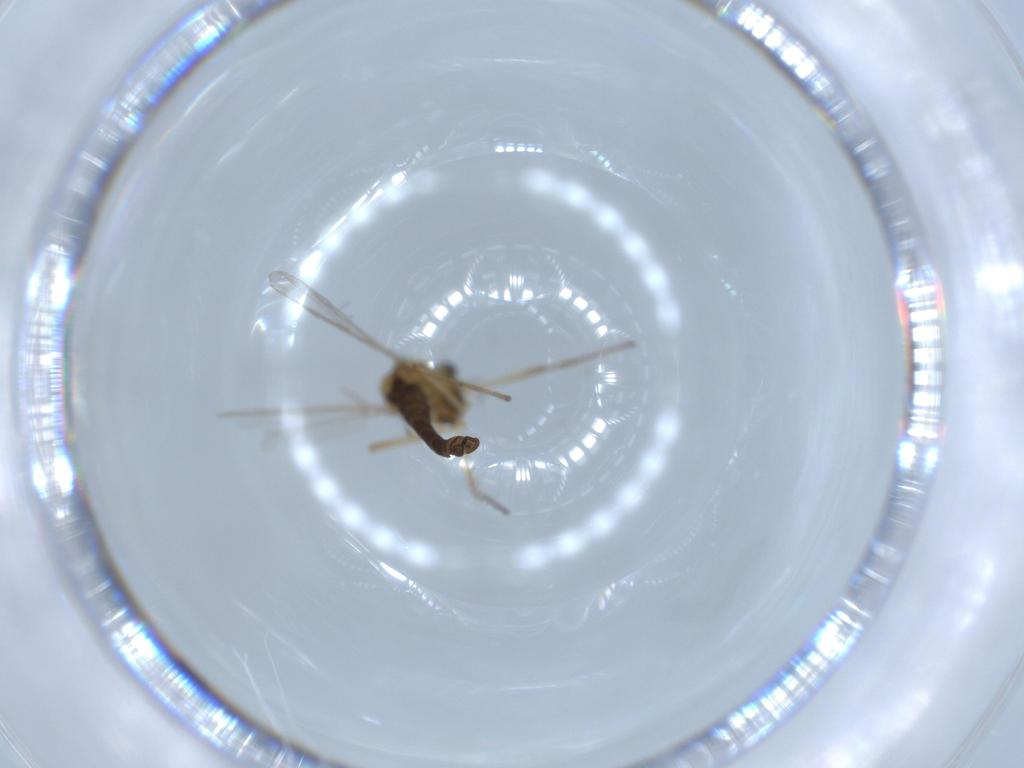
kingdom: Animalia
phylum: Arthropoda
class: Insecta
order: Diptera
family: Chironomidae
